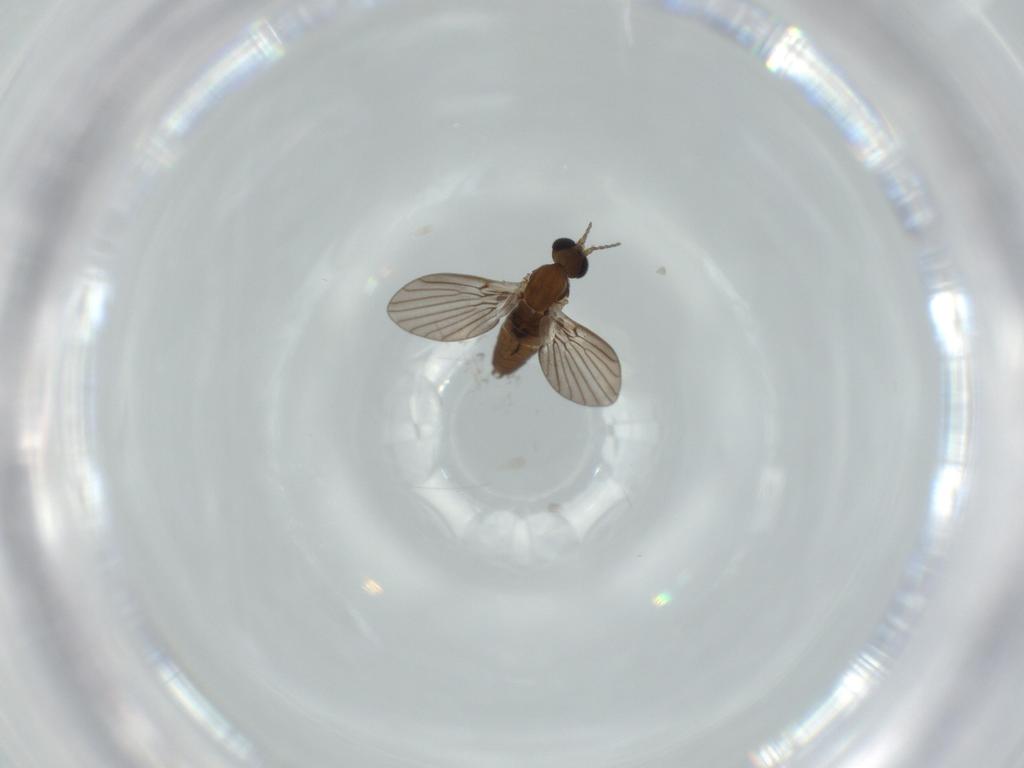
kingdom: Animalia
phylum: Arthropoda
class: Insecta
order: Diptera
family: Psychodidae
